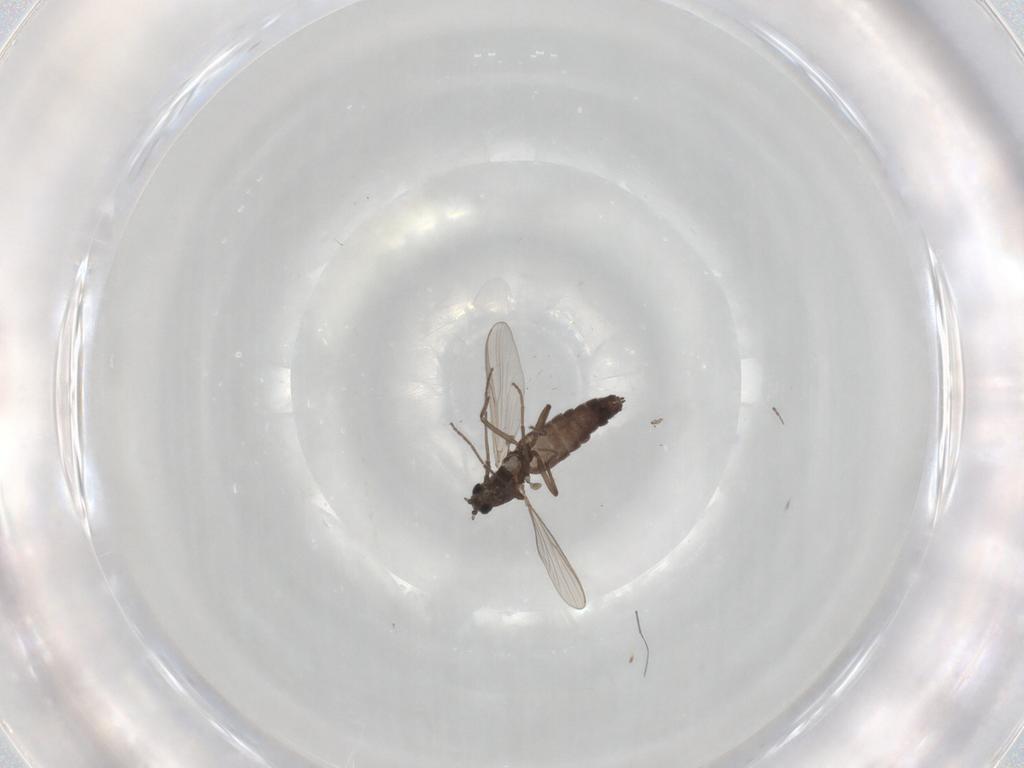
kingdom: Animalia
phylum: Arthropoda
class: Insecta
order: Diptera
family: Chironomidae
